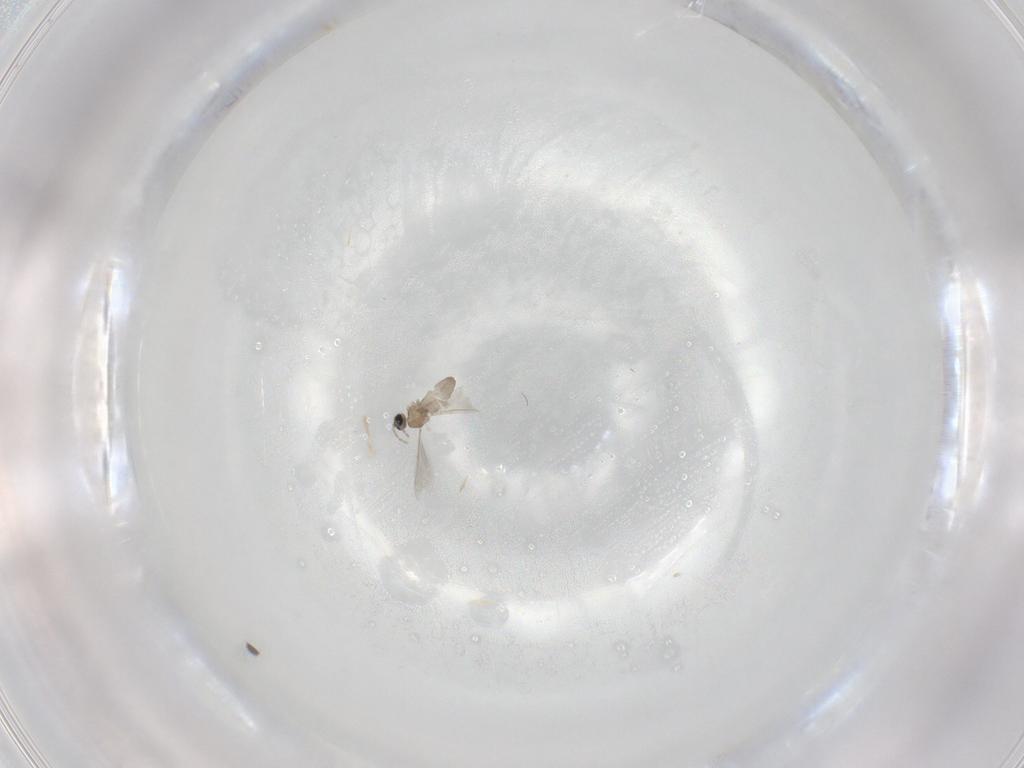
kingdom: Animalia
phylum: Arthropoda
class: Insecta
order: Diptera
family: Cecidomyiidae
